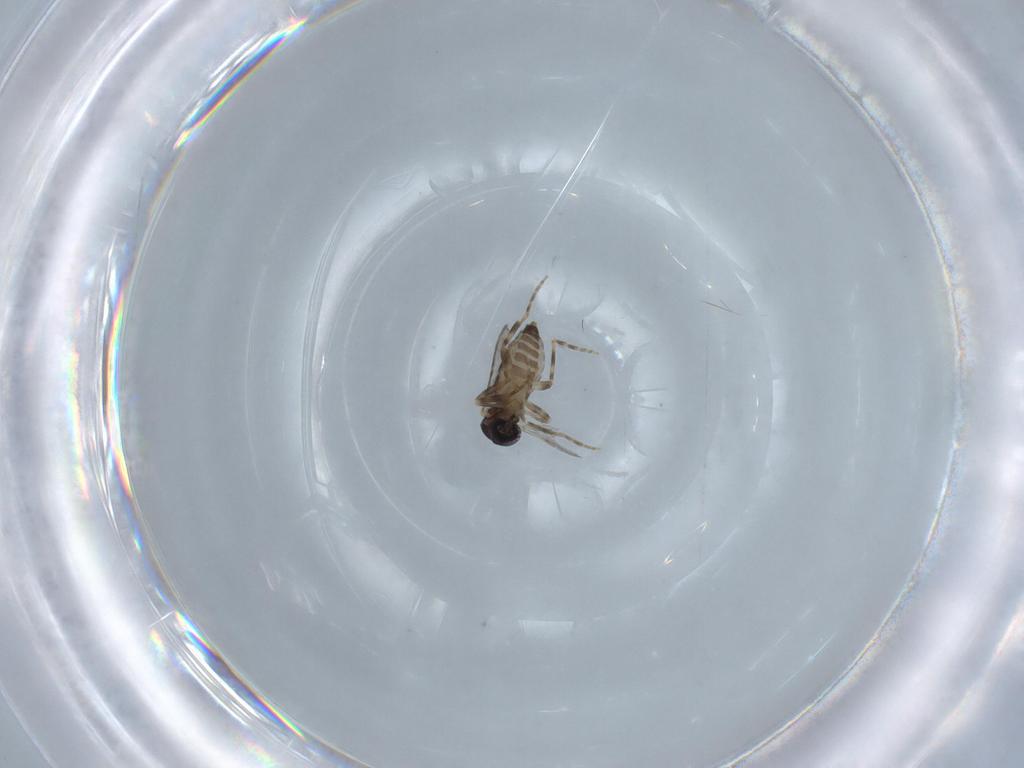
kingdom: Animalia
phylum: Arthropoda
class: Insecta
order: Diptera
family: Ceratopogonidae
